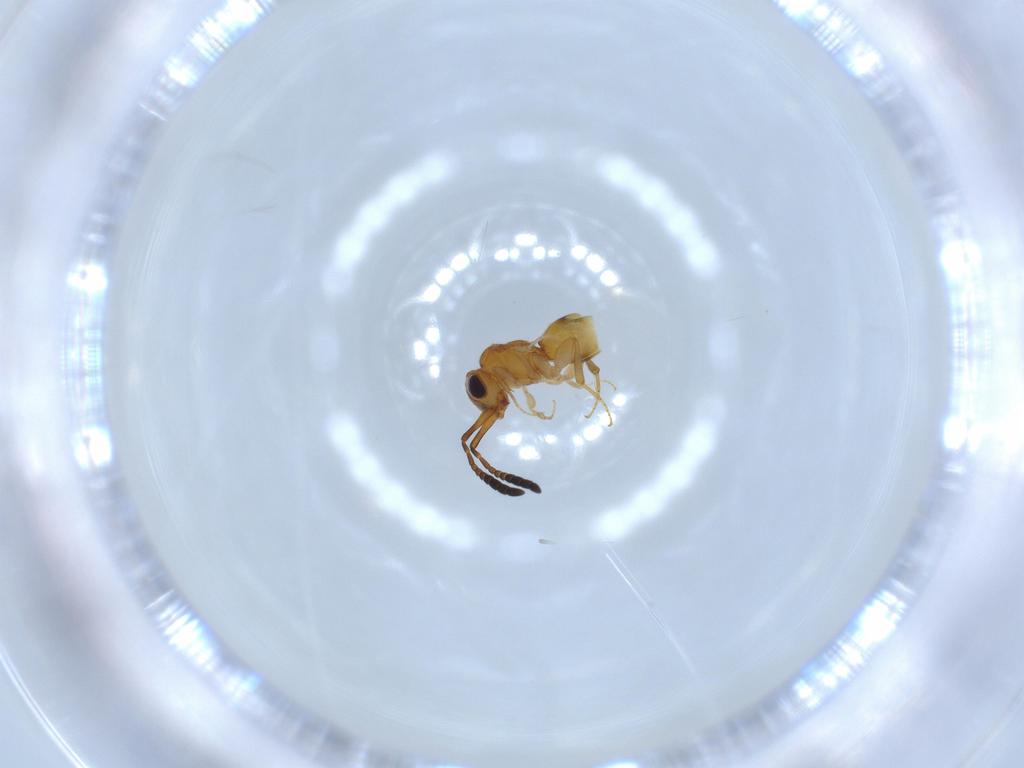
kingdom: Animalia
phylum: Arthropoda
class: Insecta
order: Hymenoptera
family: Ceraphronidae
